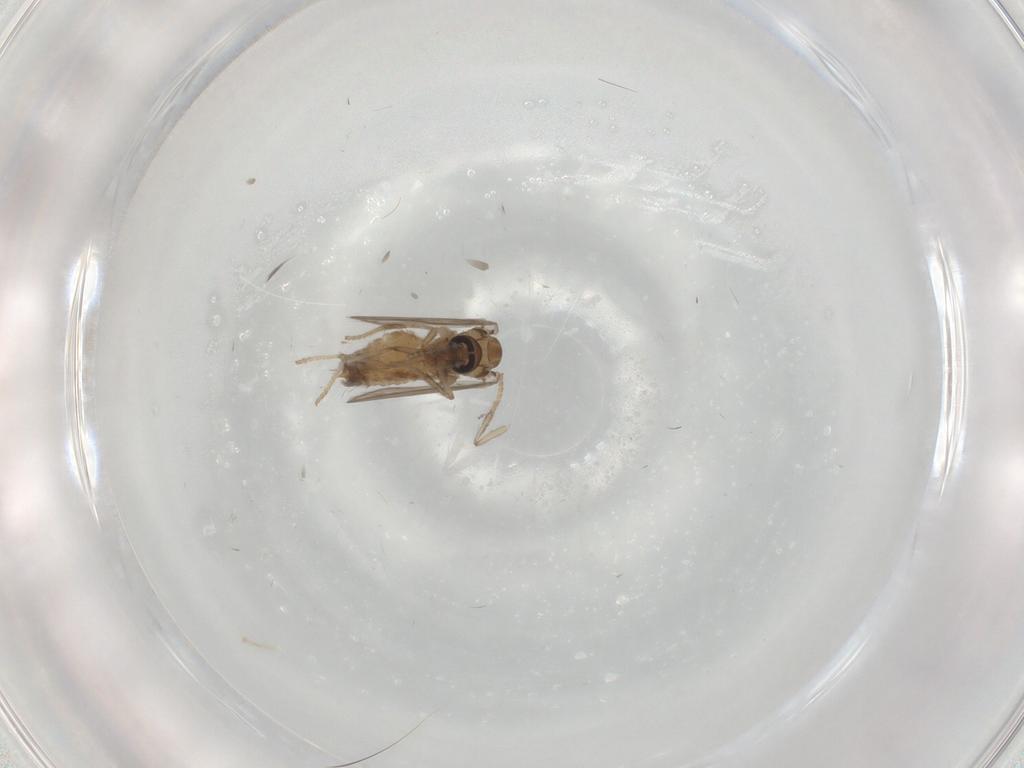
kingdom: Animalia
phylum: Arthropoda
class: Insecta
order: Diptera
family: Psychodidae
